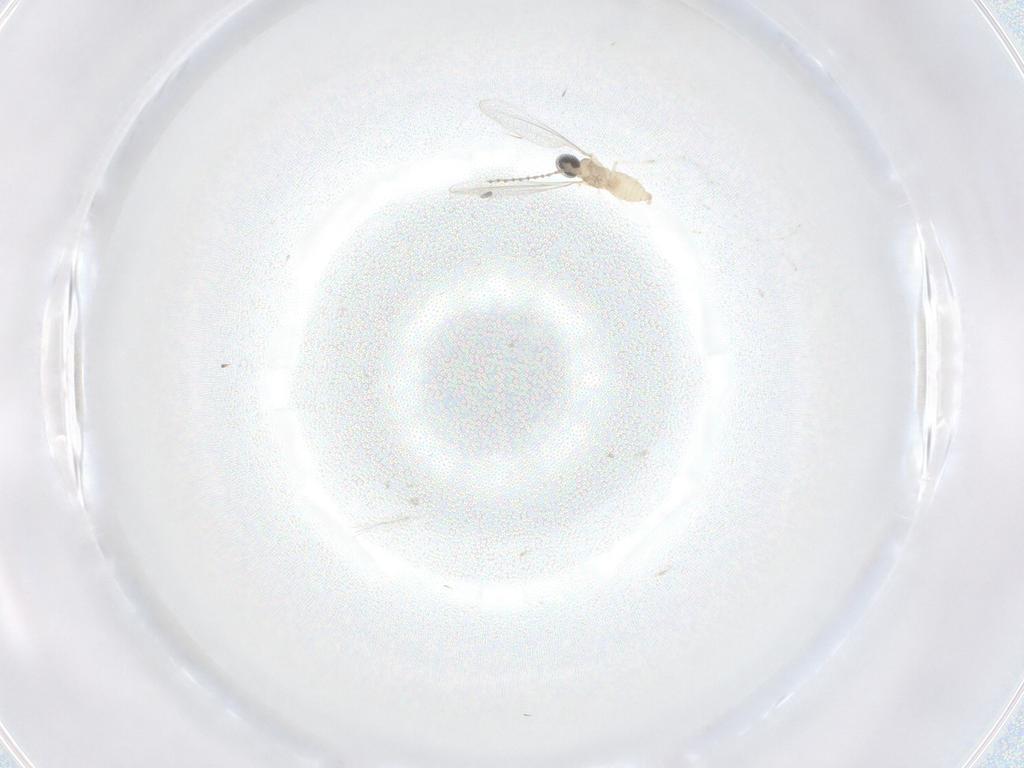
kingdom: Animalia
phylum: Arthropoda
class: Insecta
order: Diptera
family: Cecidomyiidae
